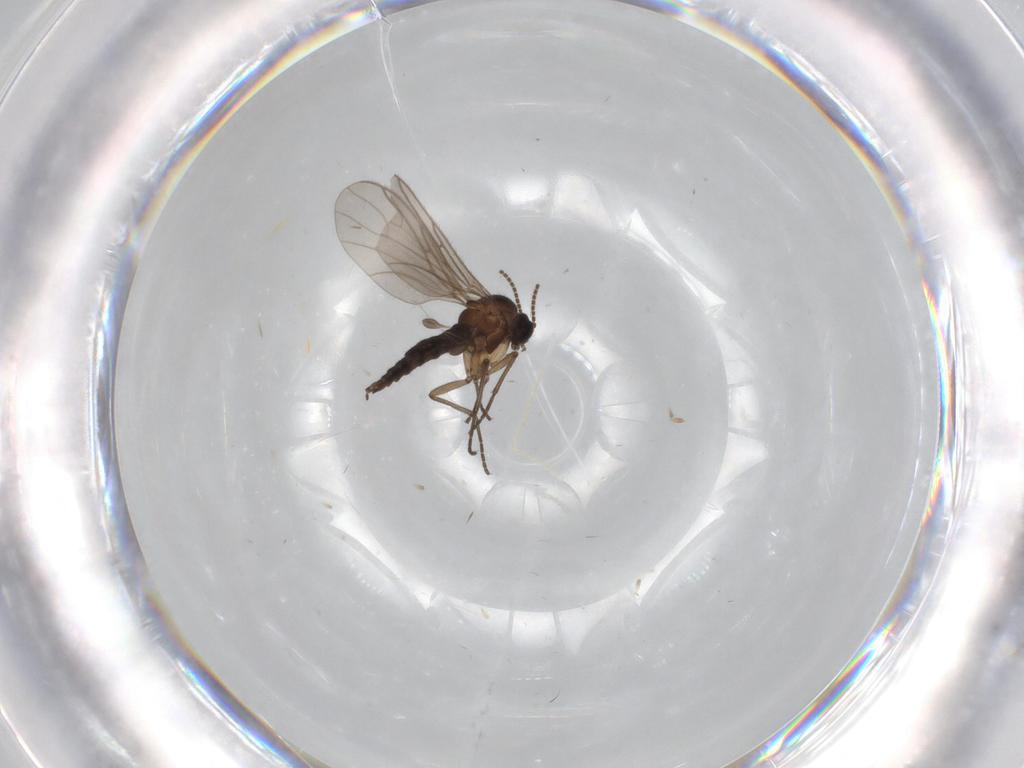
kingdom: Animalia
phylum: Arthropoda
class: Insecta
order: Diptera
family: Sciaridae
